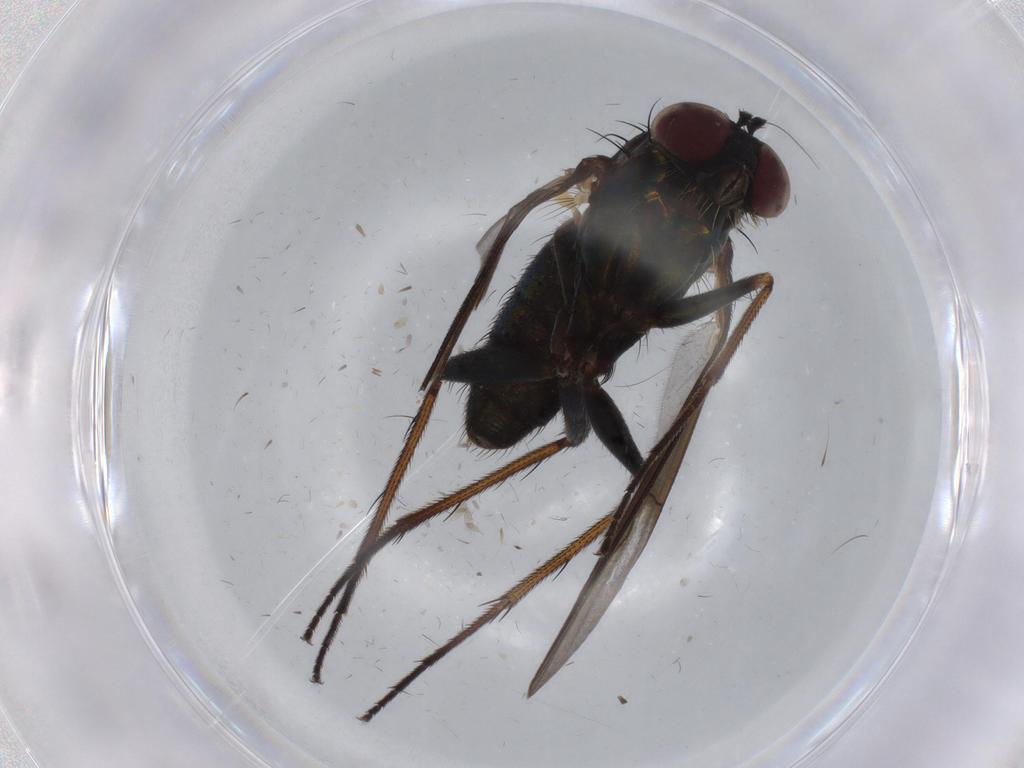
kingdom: Animalia
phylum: Arthropoda
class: Insecta
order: Diptera
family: Dolichopodidae
